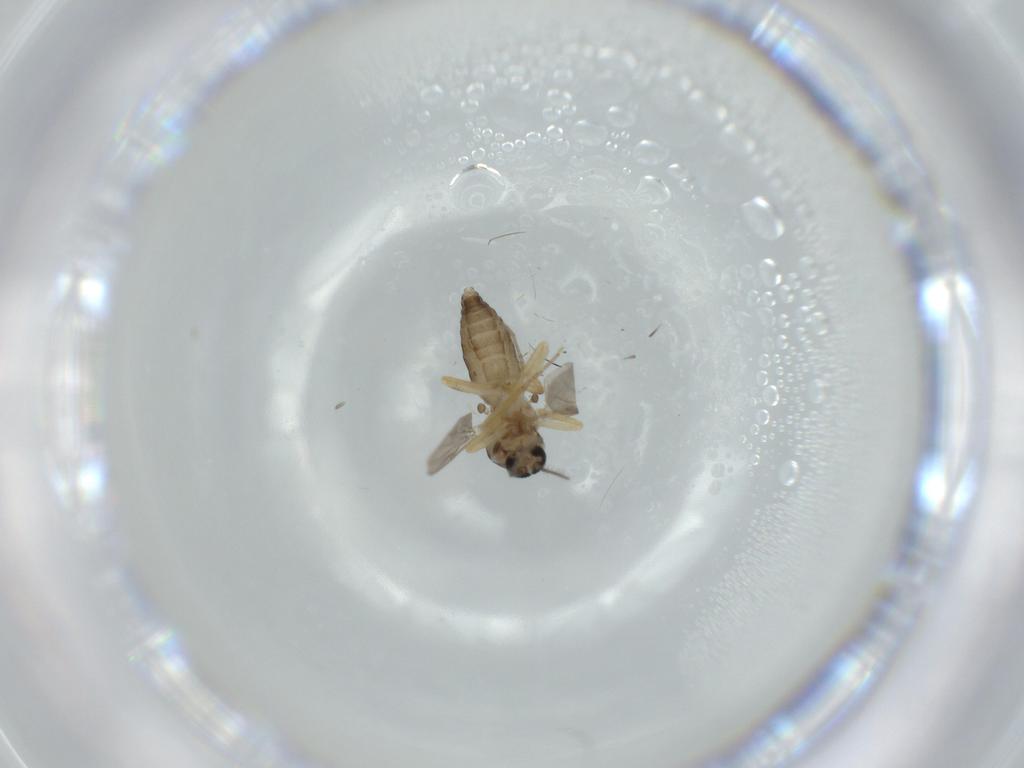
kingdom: Animalia
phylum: Arthropoda
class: Insecta
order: Diptera
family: Ceratopogonidae
